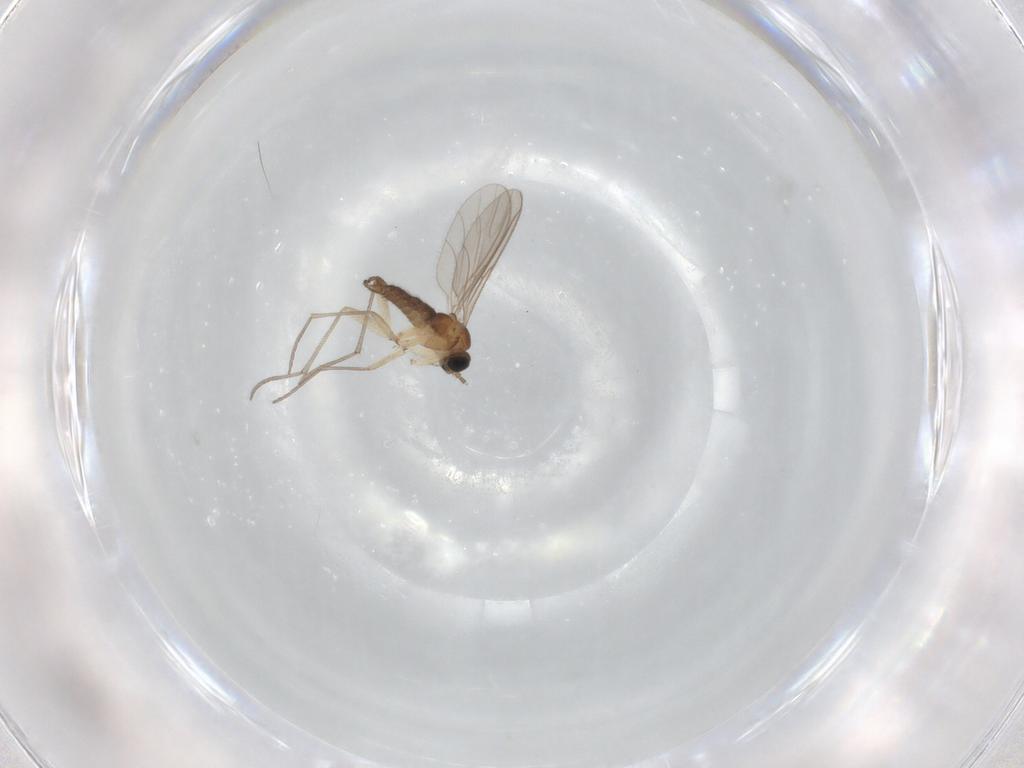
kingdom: Animalia
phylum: Arthropoda
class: Insecta
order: Diptera
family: Sciaridae
